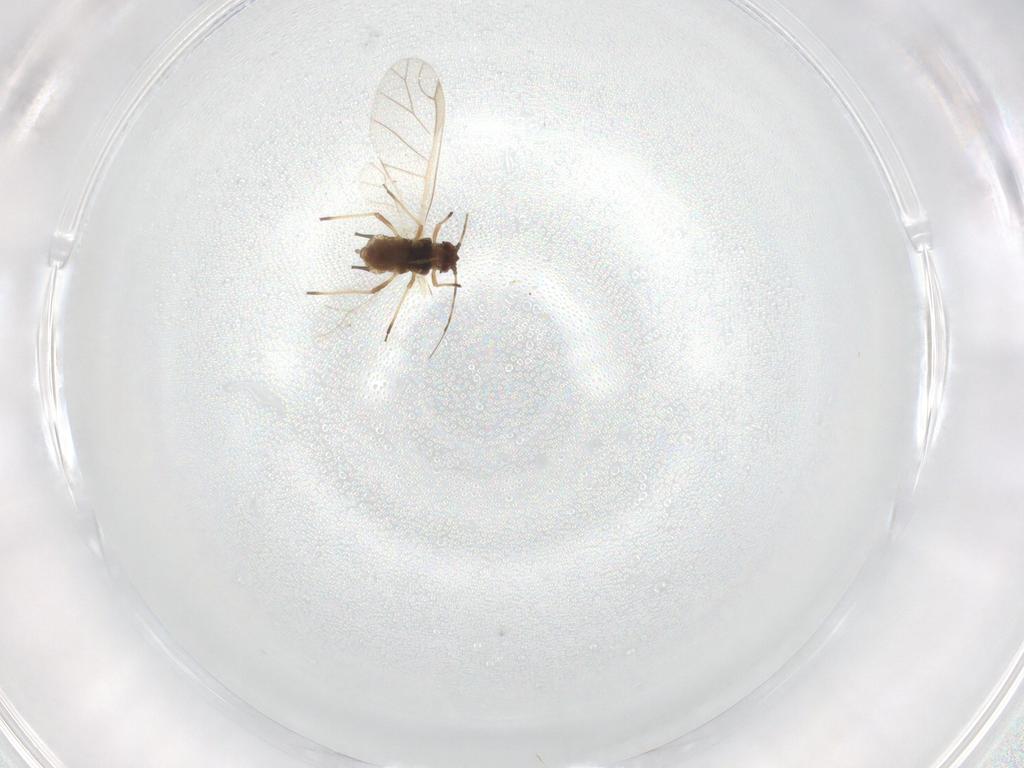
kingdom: Animalia
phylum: Arthropoda
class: Insecta
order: Hemiptera
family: Aphididae
